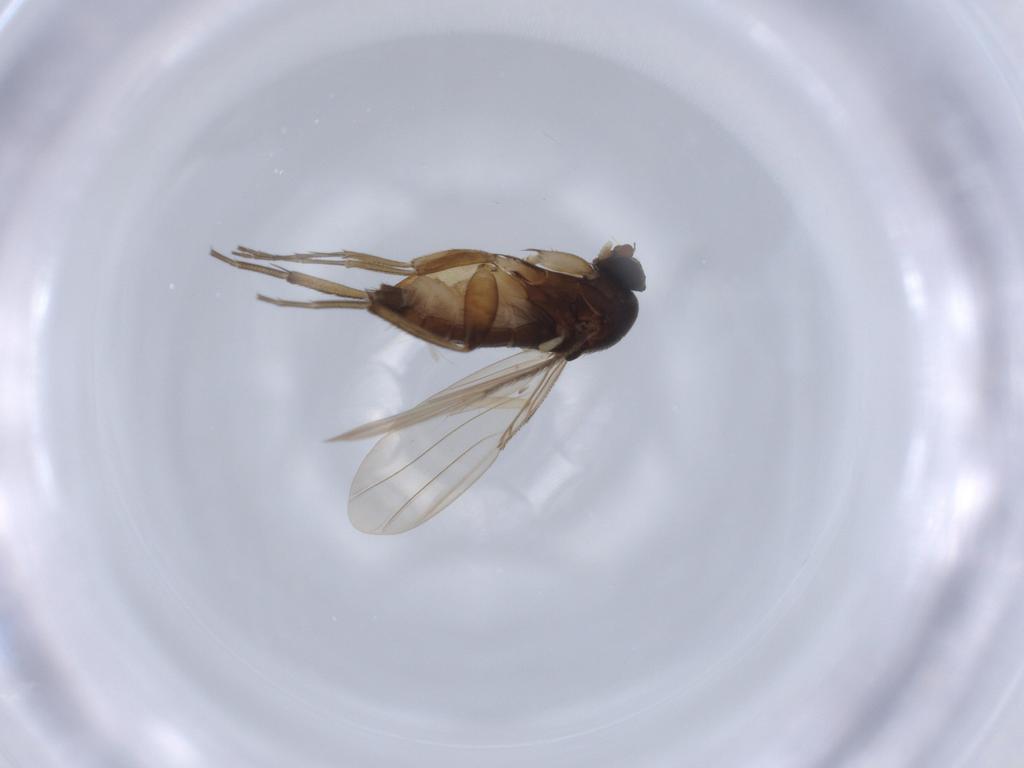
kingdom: Animalia
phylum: Arthropoda
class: Insecta
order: Diptera
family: Phoridae
